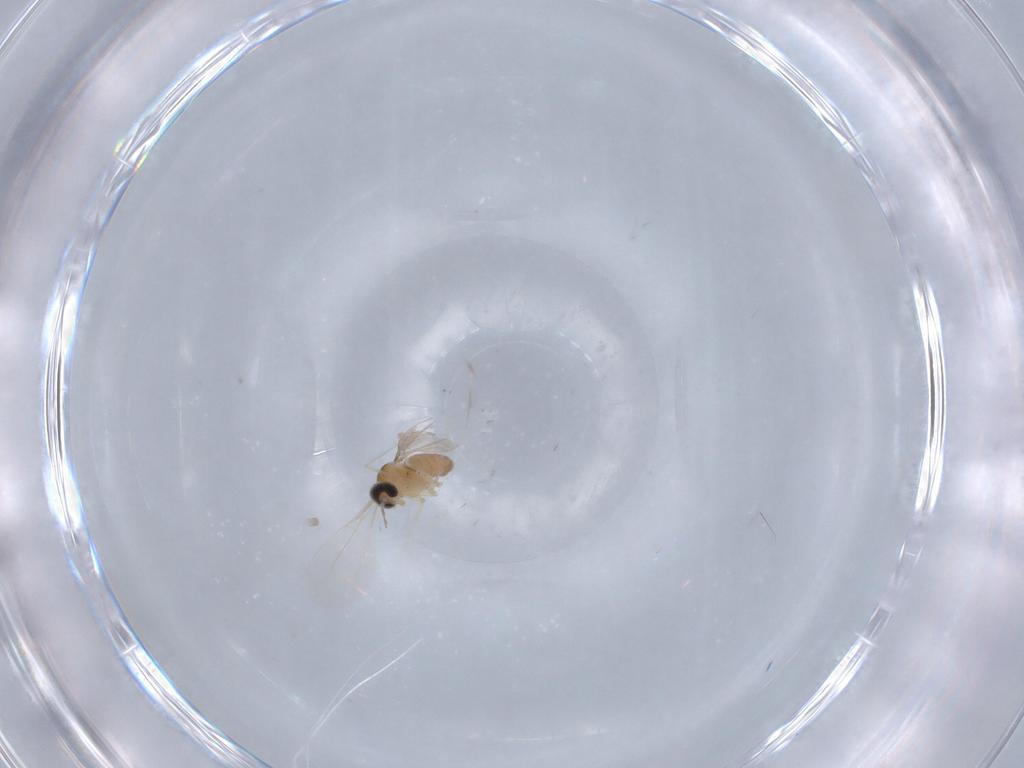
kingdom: Animalia
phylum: Arthropoda
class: Insecta
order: Diptera
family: Cecidomyiidae
